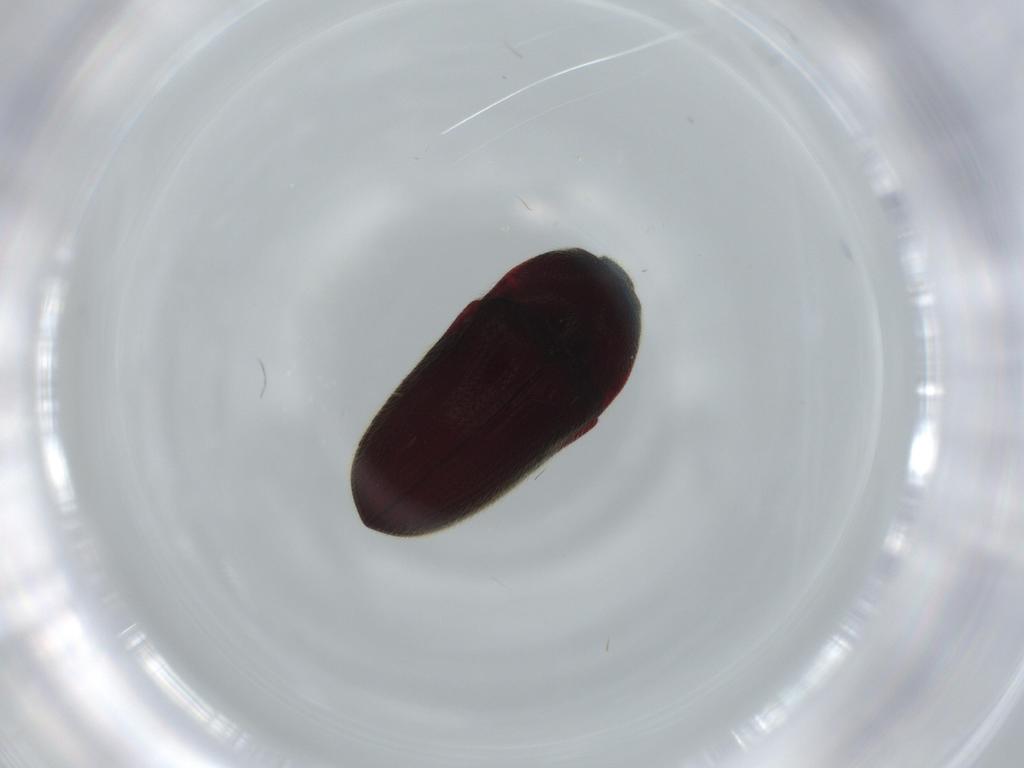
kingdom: Animalia
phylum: Arthropoda
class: Insecta
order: Coleoptera
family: Throscidae
